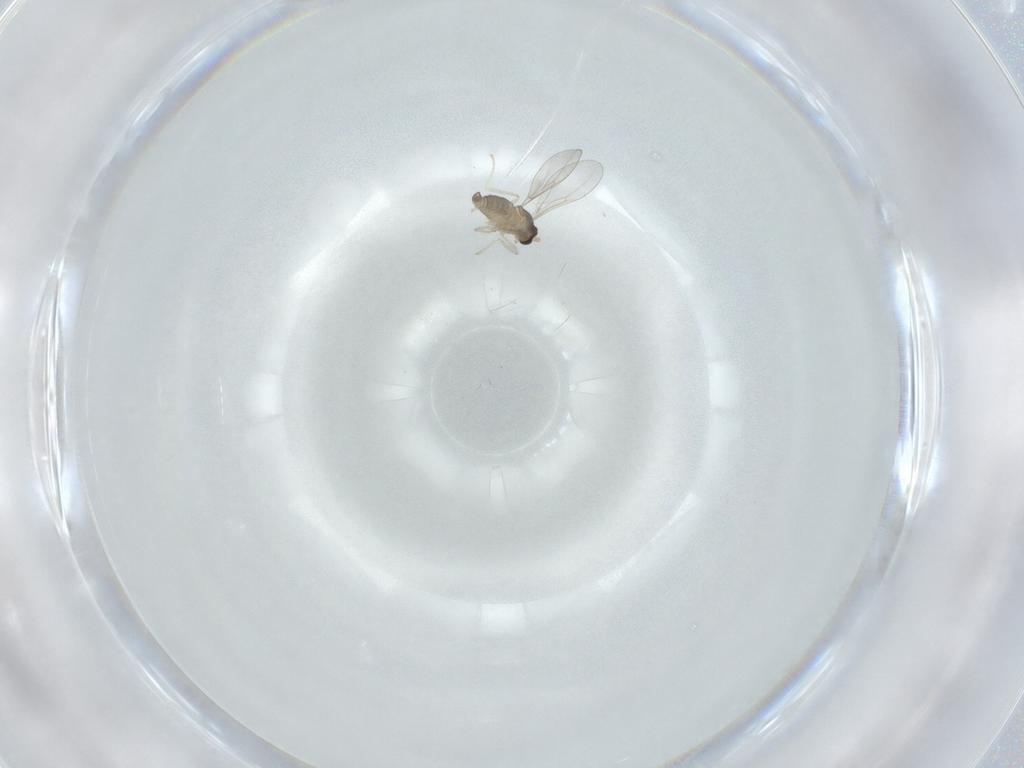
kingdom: Animalia
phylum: Arthropoda
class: Insecta
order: Diptera
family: Cecidomyiidae
